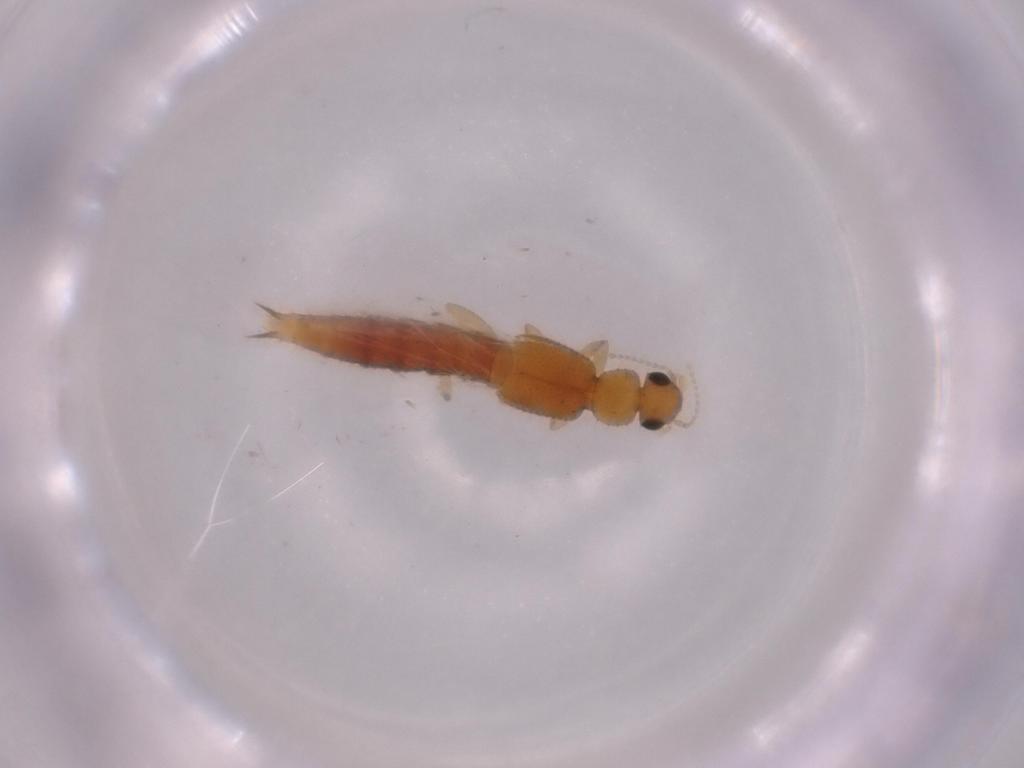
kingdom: Animalia
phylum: Arthropoda
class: Insecta
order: Coleoptera
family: Staphylinidae
